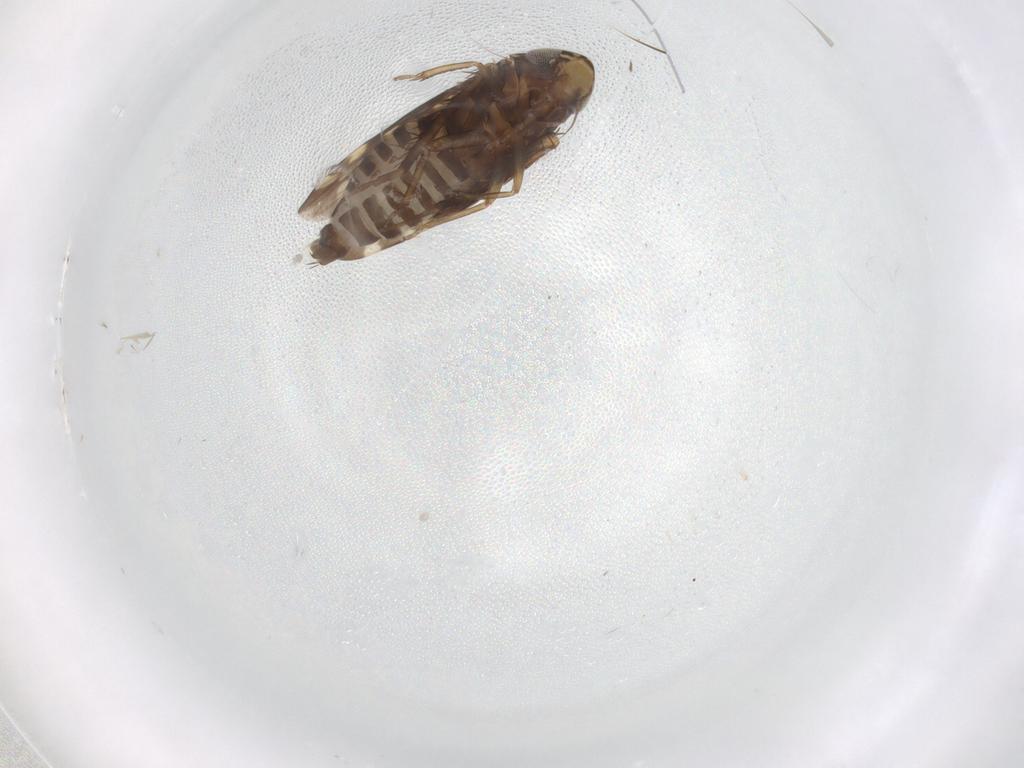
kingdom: Animalia
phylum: Arthropoda
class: Insecta
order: Hemiptera
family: Cicadellidae
